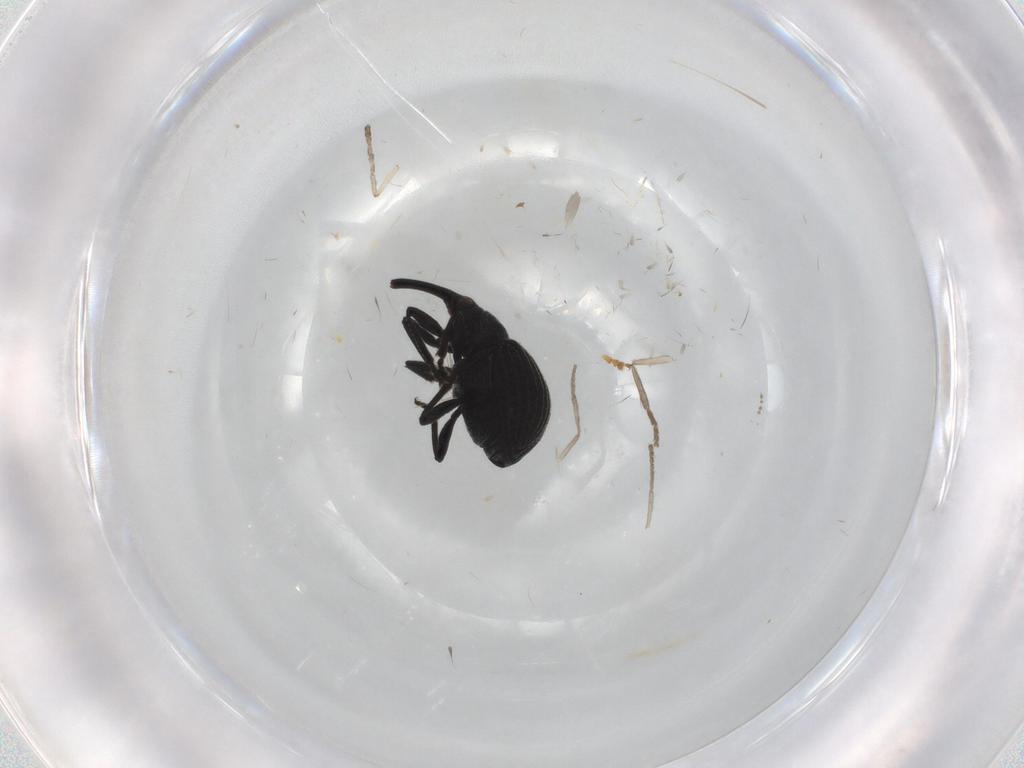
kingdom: Animalia
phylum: Arthropoda
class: Insecta
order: Coleoptera
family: Brentidae
